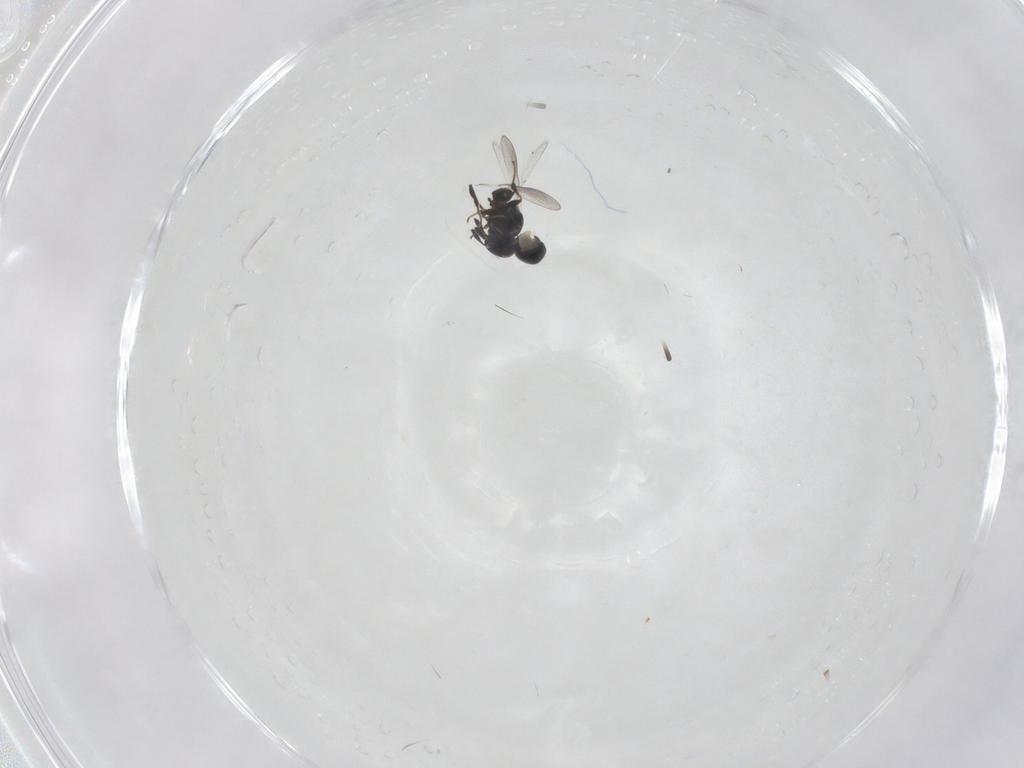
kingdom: Animalia
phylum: Arthropoda
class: Insecta
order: Hymenoptera
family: Platygastridae
